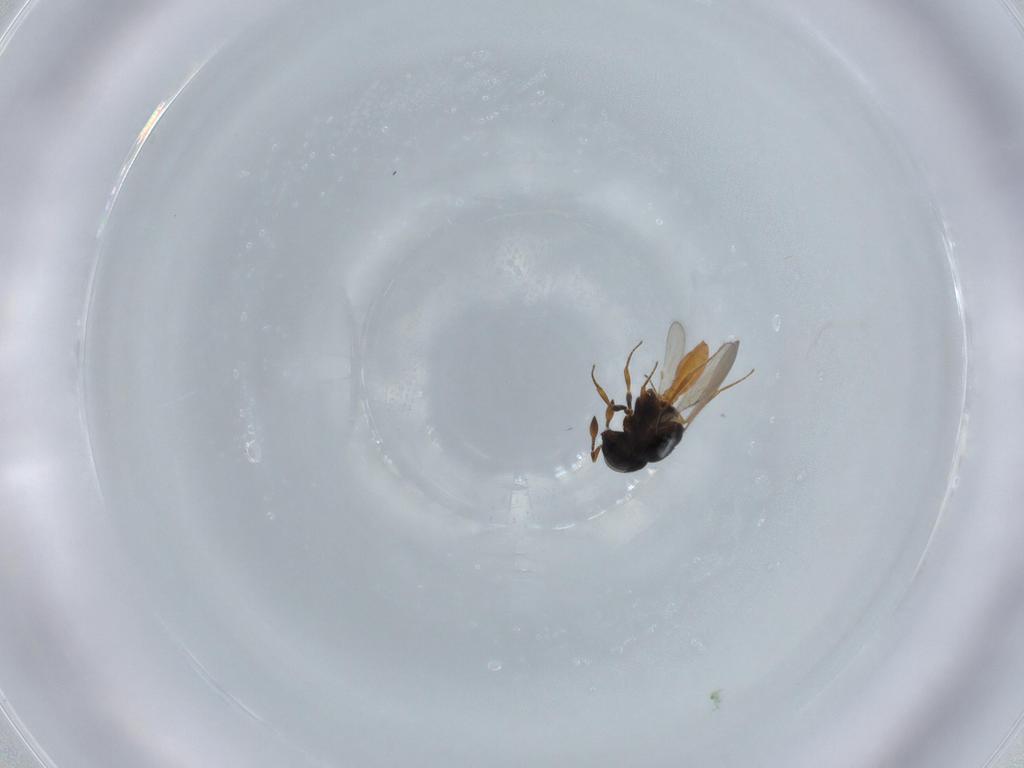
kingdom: Animalia
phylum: Arthropoda
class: Insecta
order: Hymenoptera
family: Scelionidae
